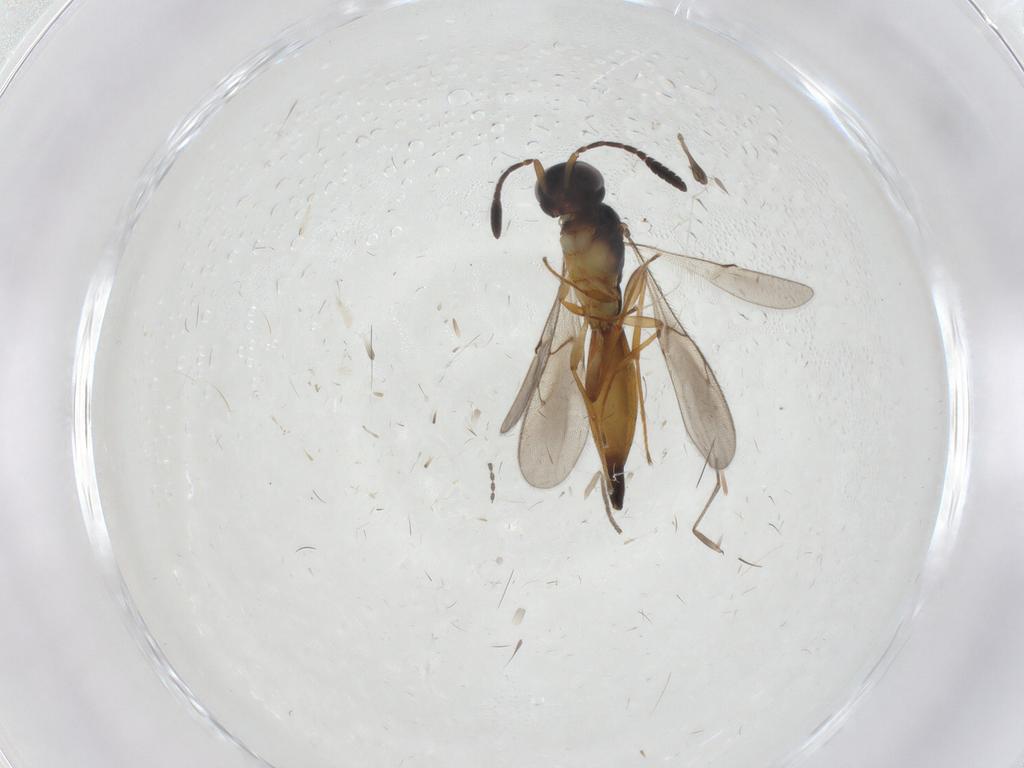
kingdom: Animalia
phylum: Arthropoda
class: Insecta
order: Hymenoptera
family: Scelionidae
